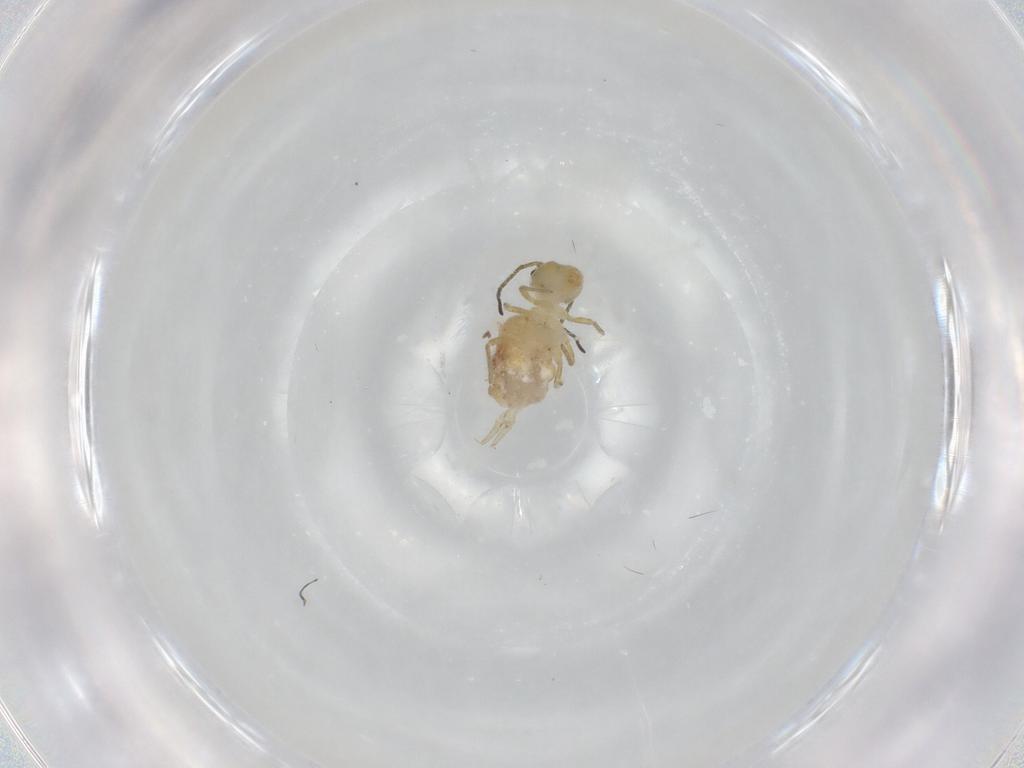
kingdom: Animalia
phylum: Arthropoda
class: Collembola
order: Symphypleona
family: Sminthuridae
